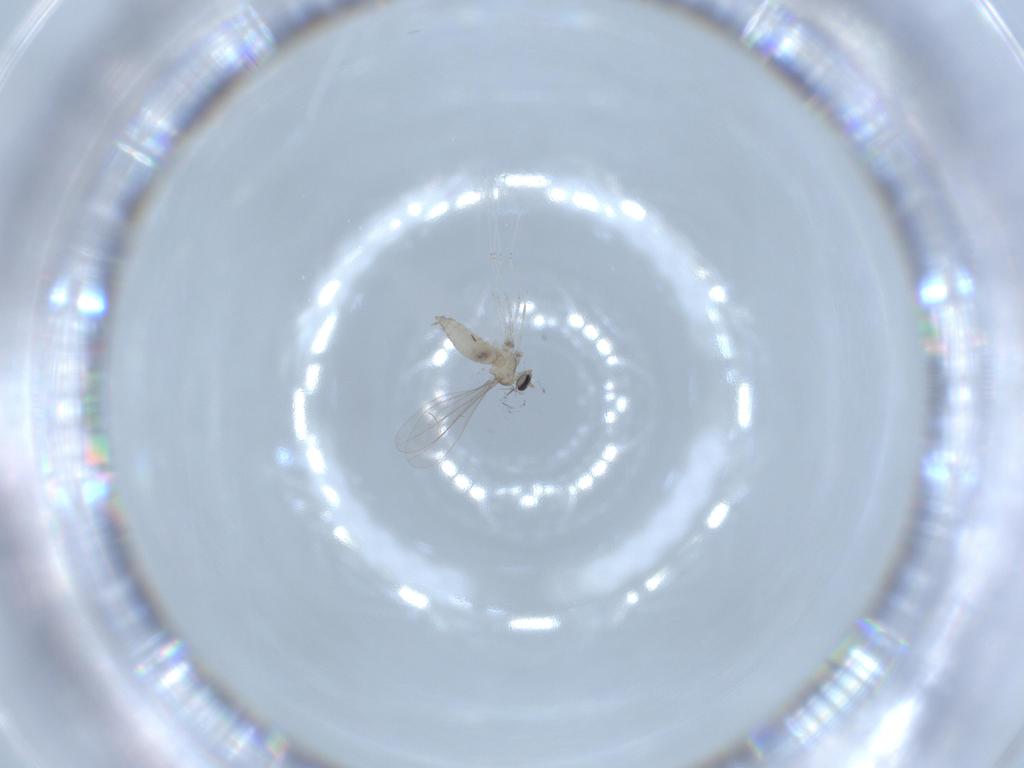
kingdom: Animalia
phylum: Arthropoda
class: Insecta
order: Diptera
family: Cecidomyiidae
